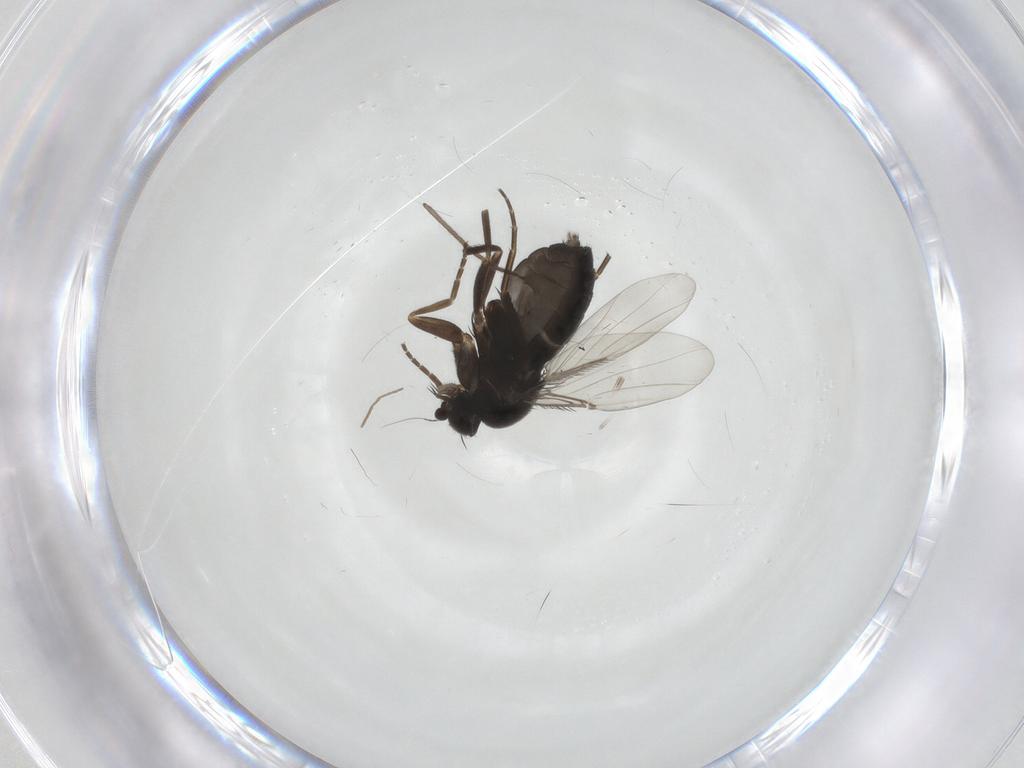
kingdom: Animalia
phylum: Arthropoda
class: Insecta
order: Diptera
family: Phoridae
